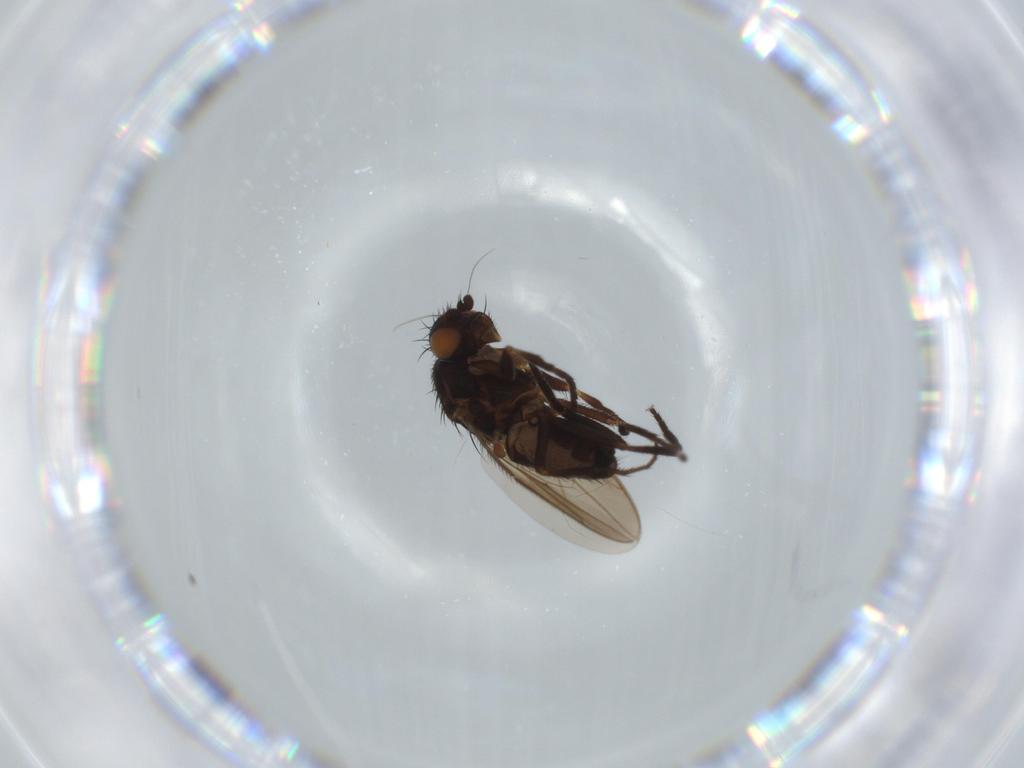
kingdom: Animalia
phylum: Arthropoda
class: Insecta
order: Diptera
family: Sphaeroceridae
